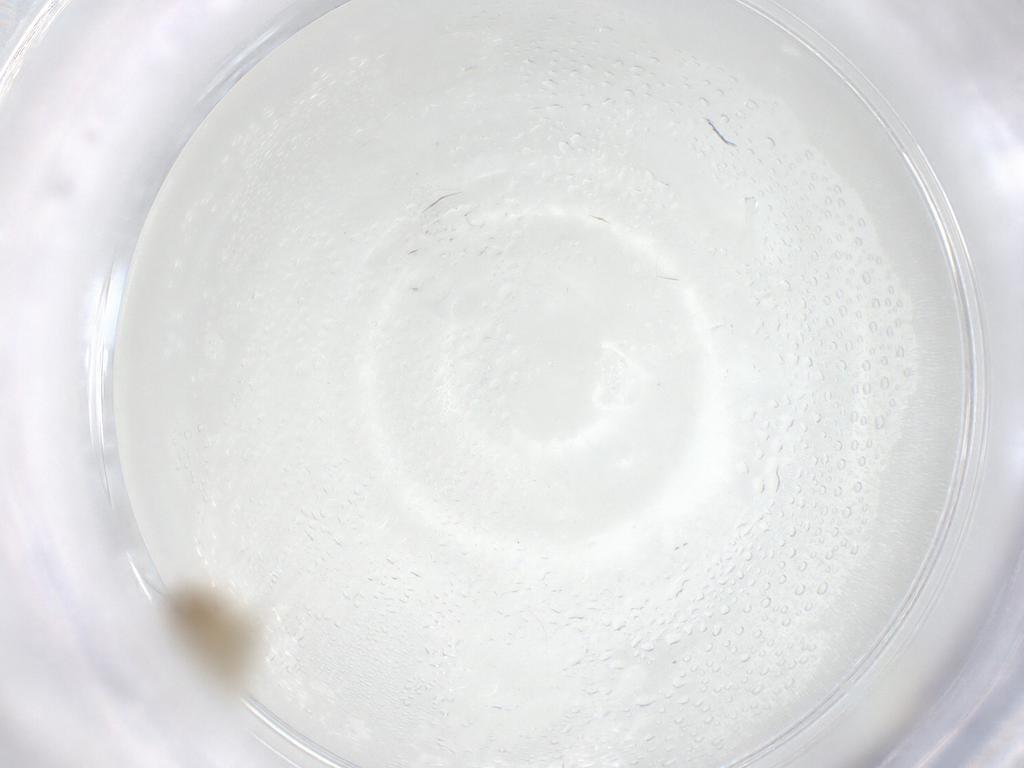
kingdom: Animalia
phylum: Arthropoda
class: Arachnida
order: Trombidiformes
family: Anystidae
